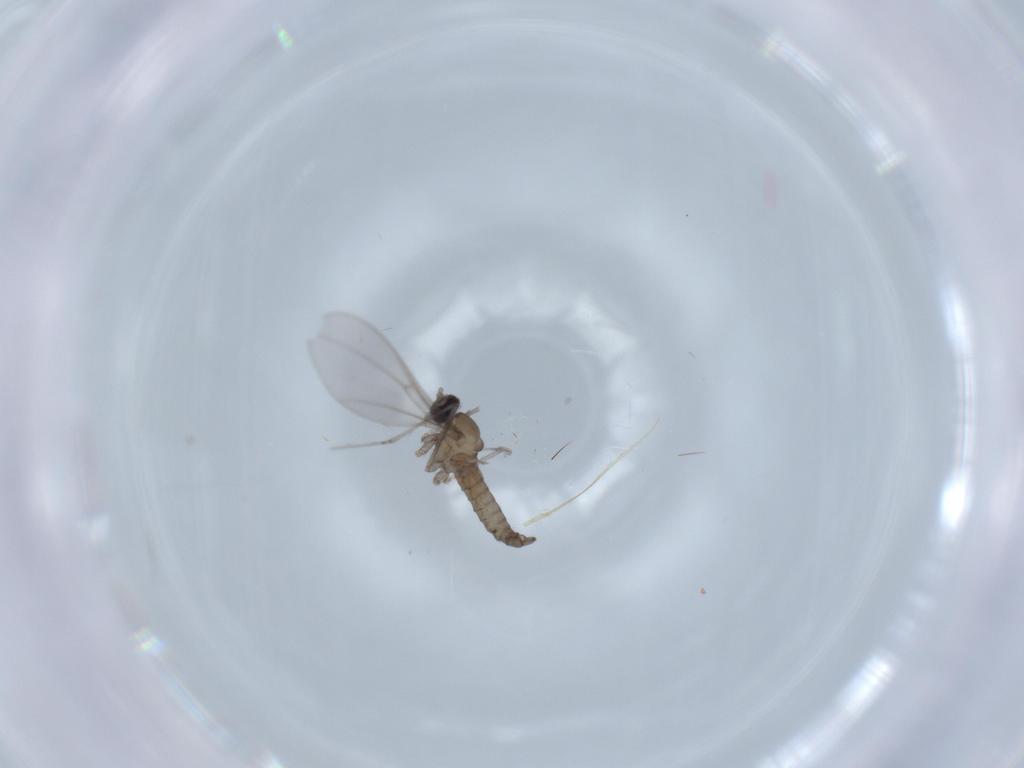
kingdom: Animalia
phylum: Arthropoda
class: Insecta
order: Diptera
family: Cecidomyiidae
